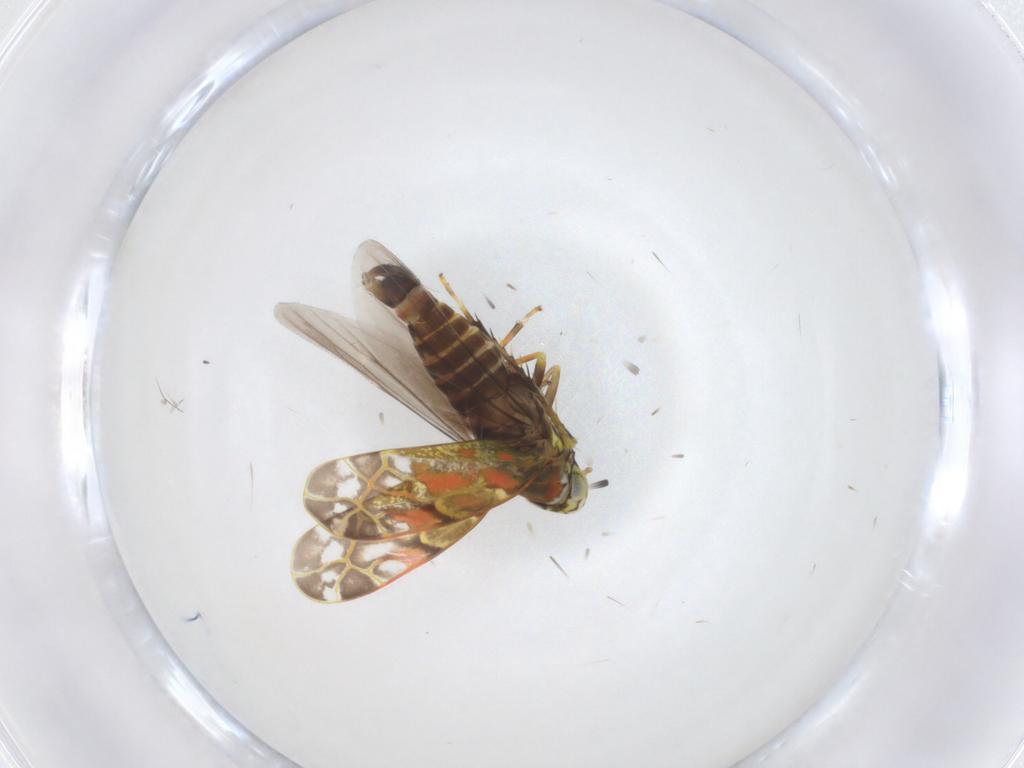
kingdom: Animalia
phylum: Arthropoda
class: Insecta
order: Hemiptera
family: Cicadellidae
